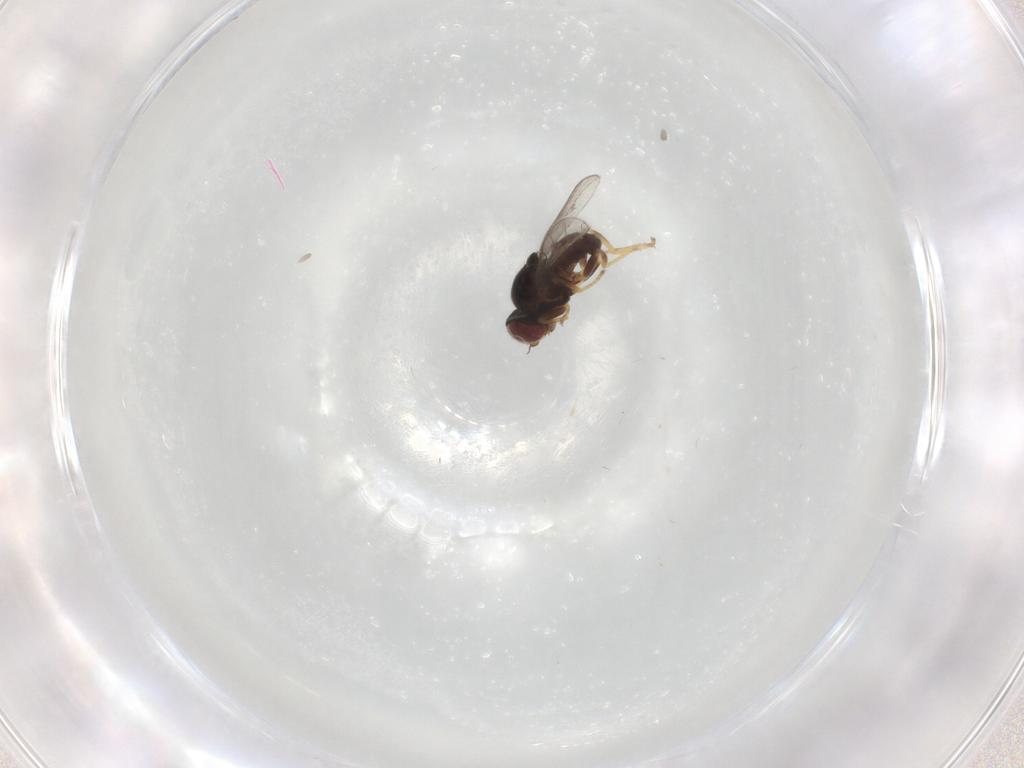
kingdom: Animalia
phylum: Arthropoda
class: Insecta
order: Diptera
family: Chloropidae
